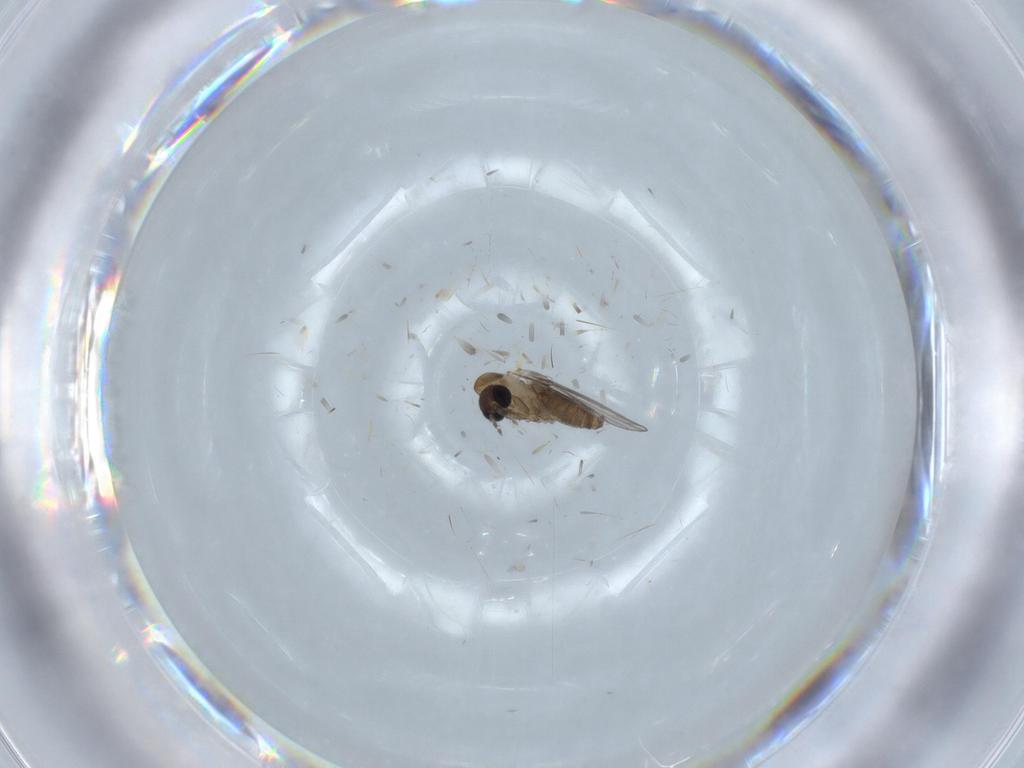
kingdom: Animalia
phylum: Arthropoda
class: Insecta
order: Diptera
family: Psychodidae
